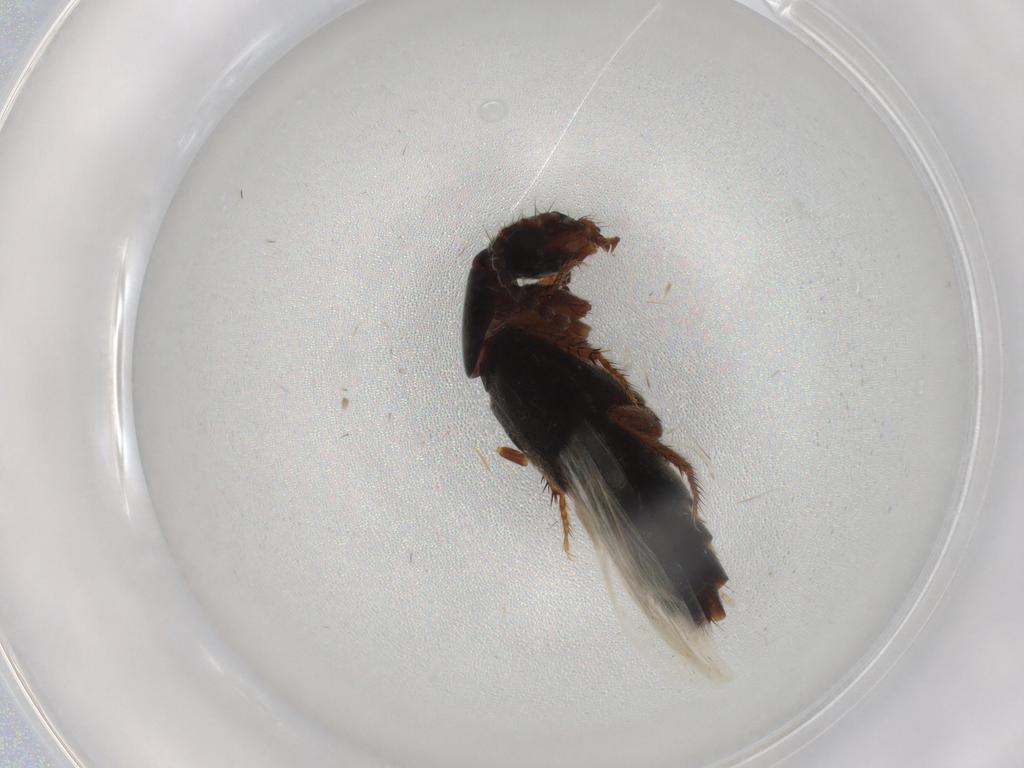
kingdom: Animalia
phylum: Arthropoda
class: Insecta
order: Coleoptera
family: Staphylinidae
